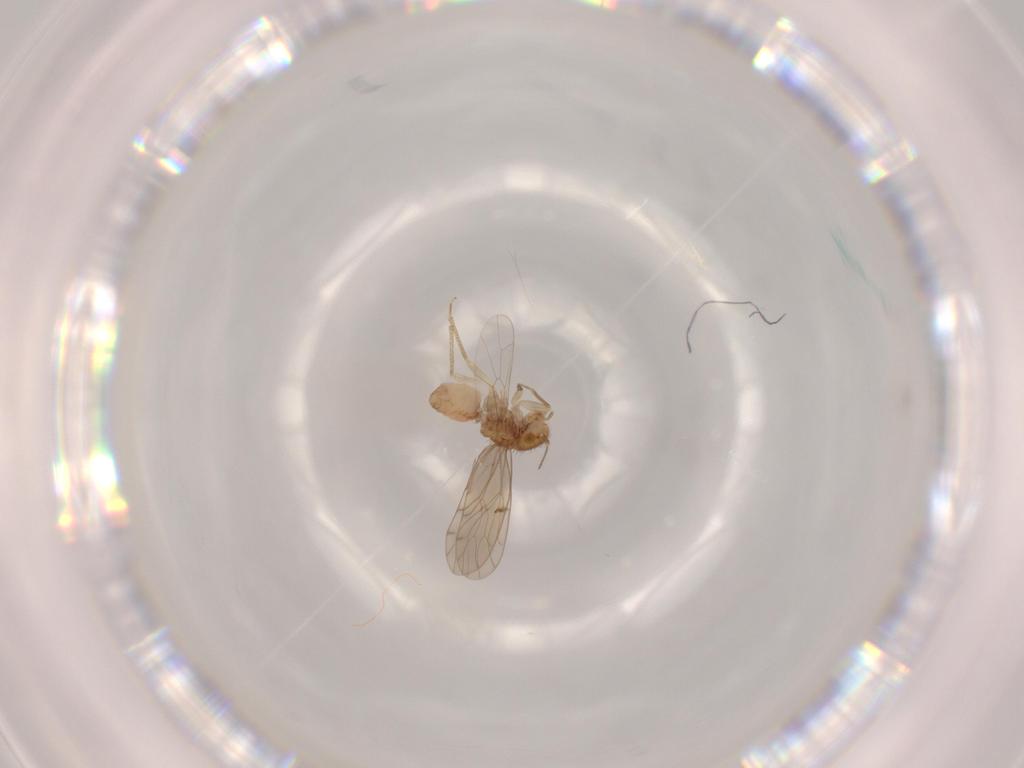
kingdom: Animalia
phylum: Arthropoda
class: Insecta
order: Psocodea
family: Ectopsocidae
